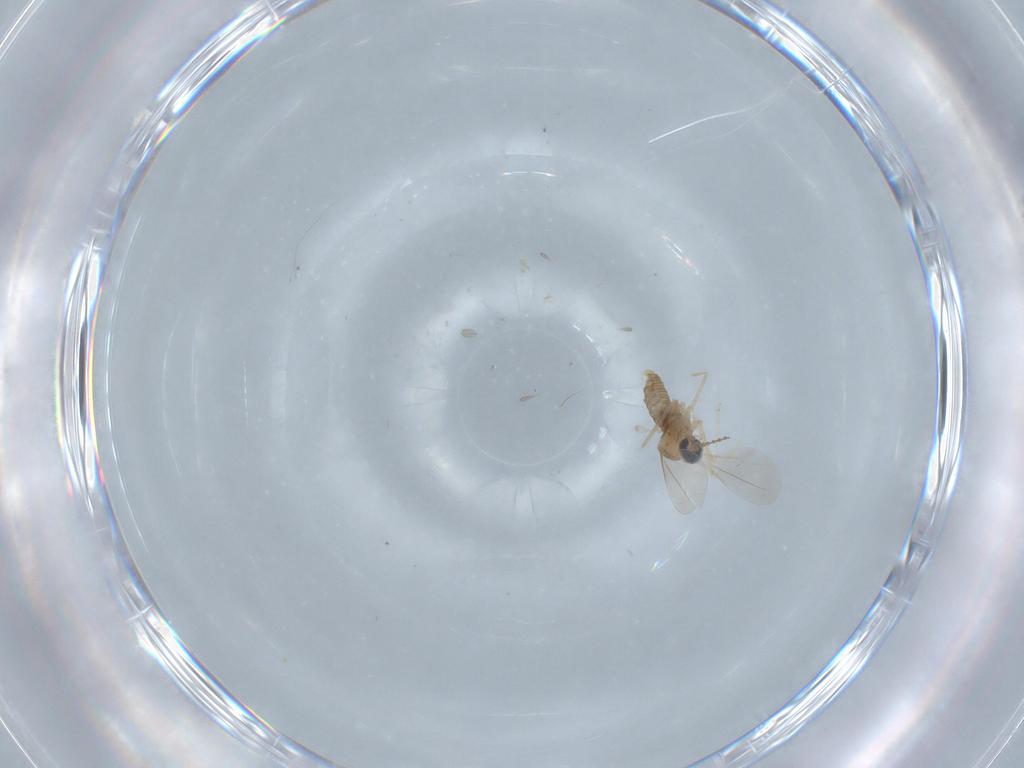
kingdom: Animalia
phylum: Arthropoda
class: Insecta
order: Diptera
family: Cecidomyiidae
